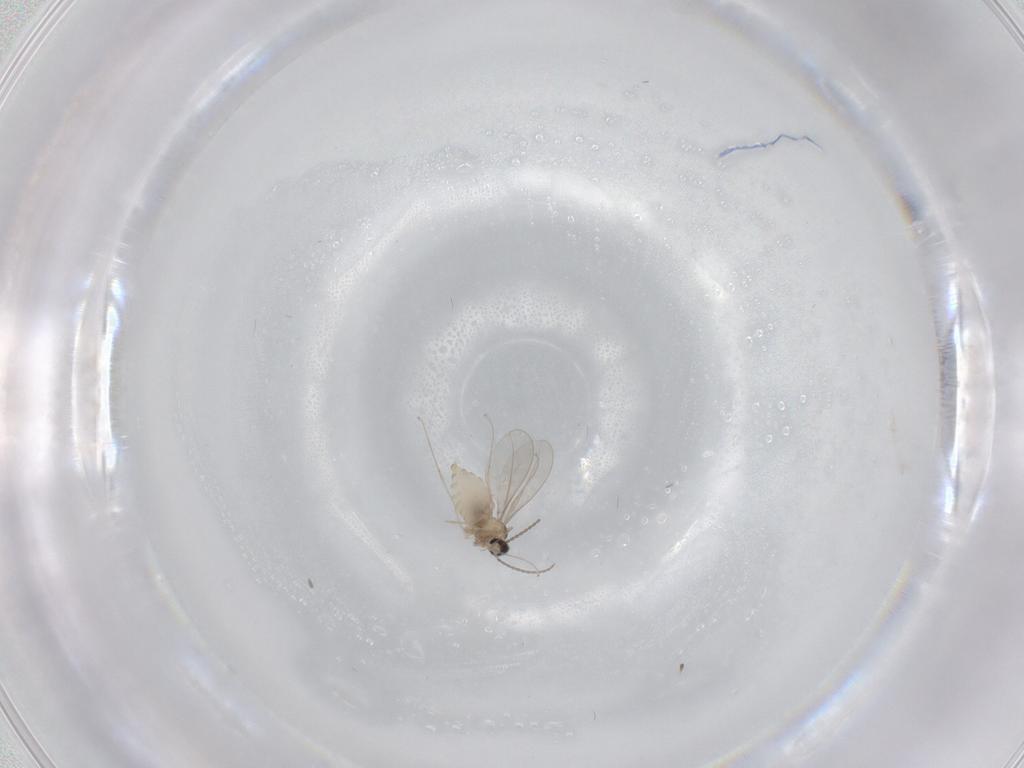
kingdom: Animalia
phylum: Arthropoda
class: Insecta
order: Diptera
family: Cecidomyiidae
